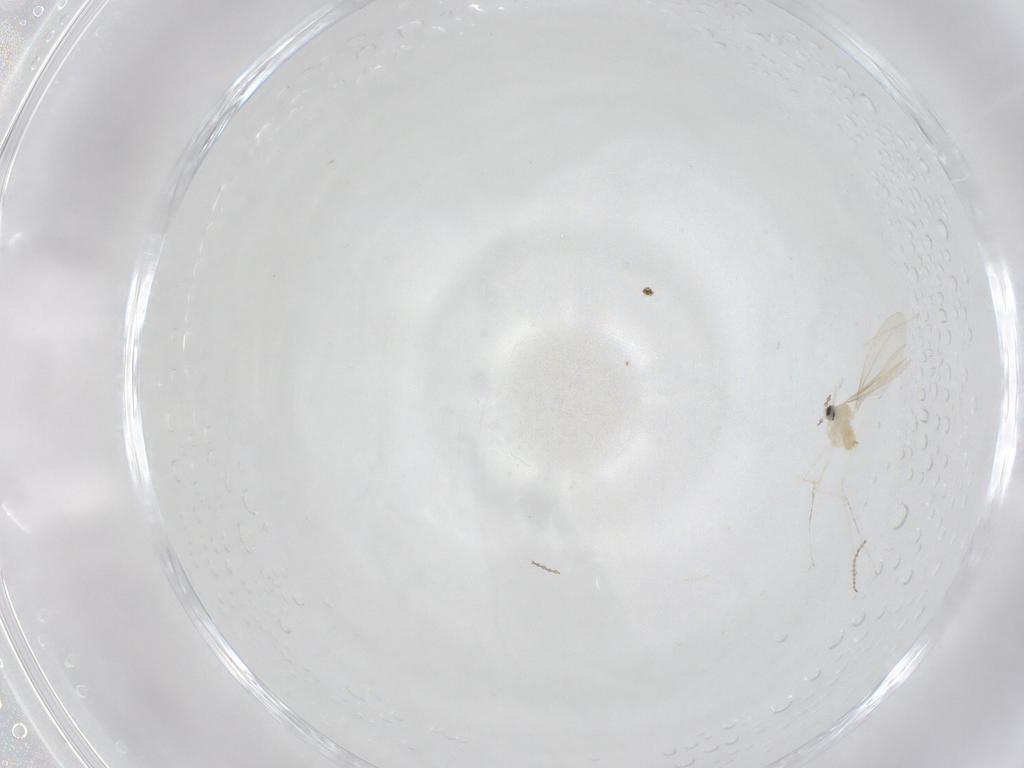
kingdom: Animalia
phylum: Arthropoda
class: Insecta
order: Diptera
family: Cecidomyiidae
